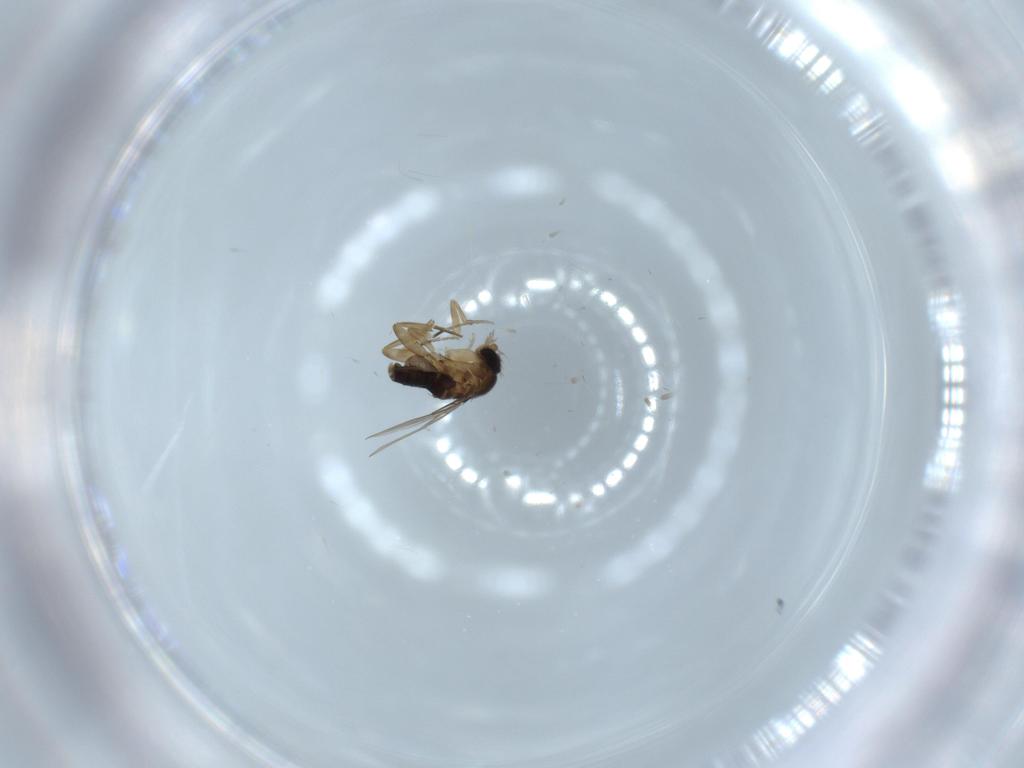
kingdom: Animalia
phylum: Arthropoda
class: Insecta
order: Diptera
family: Phoridae
